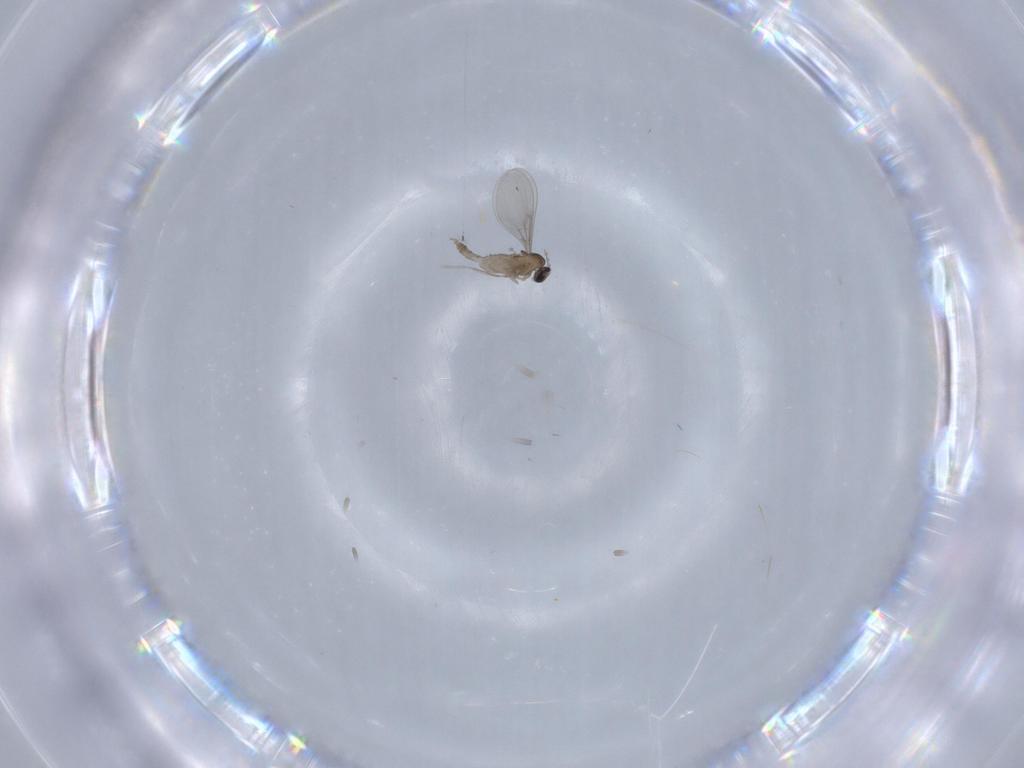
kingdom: Animalia
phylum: Arthropoda
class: Insecta
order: Diptera
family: Cecidomyiidae
